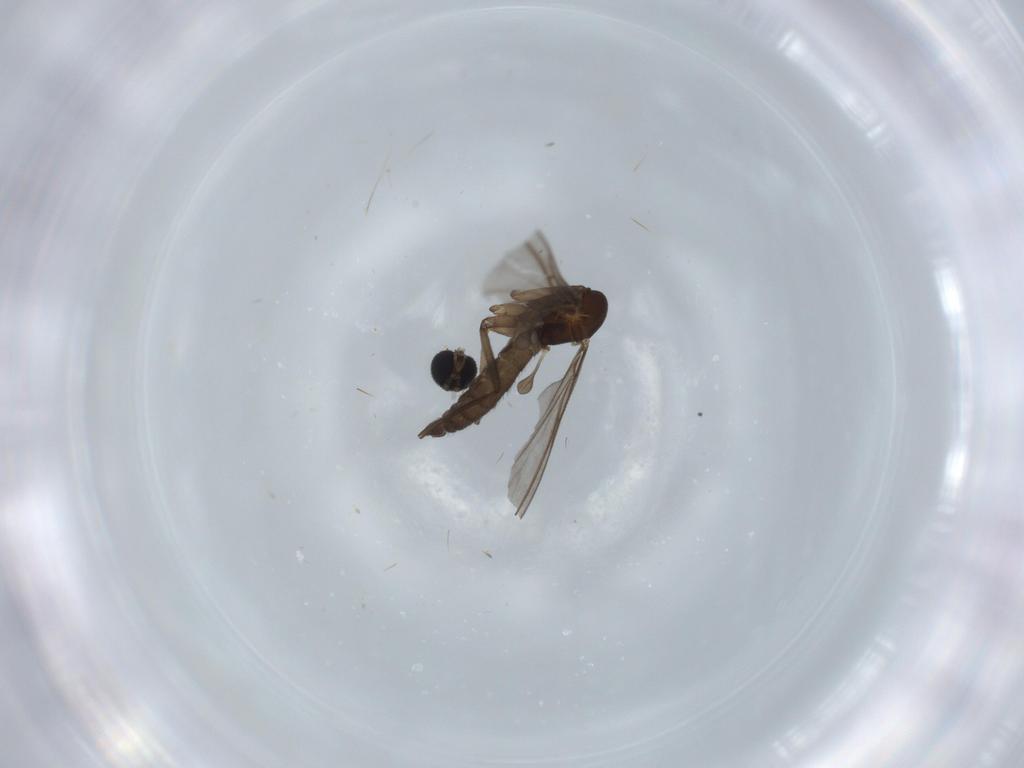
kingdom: Animalia
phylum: Arthropoda
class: Insecta
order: Diptera
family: Sciaridae
